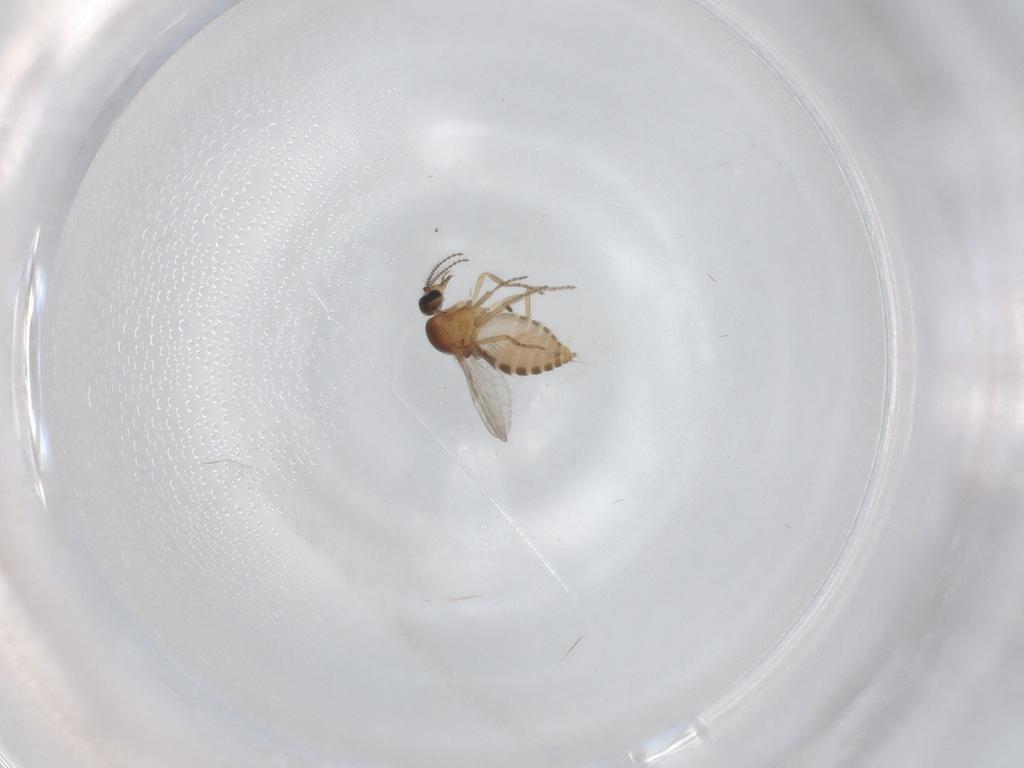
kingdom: Animalia
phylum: Arthropoda
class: Insecta
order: Diptera
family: Ceratopogonidae
